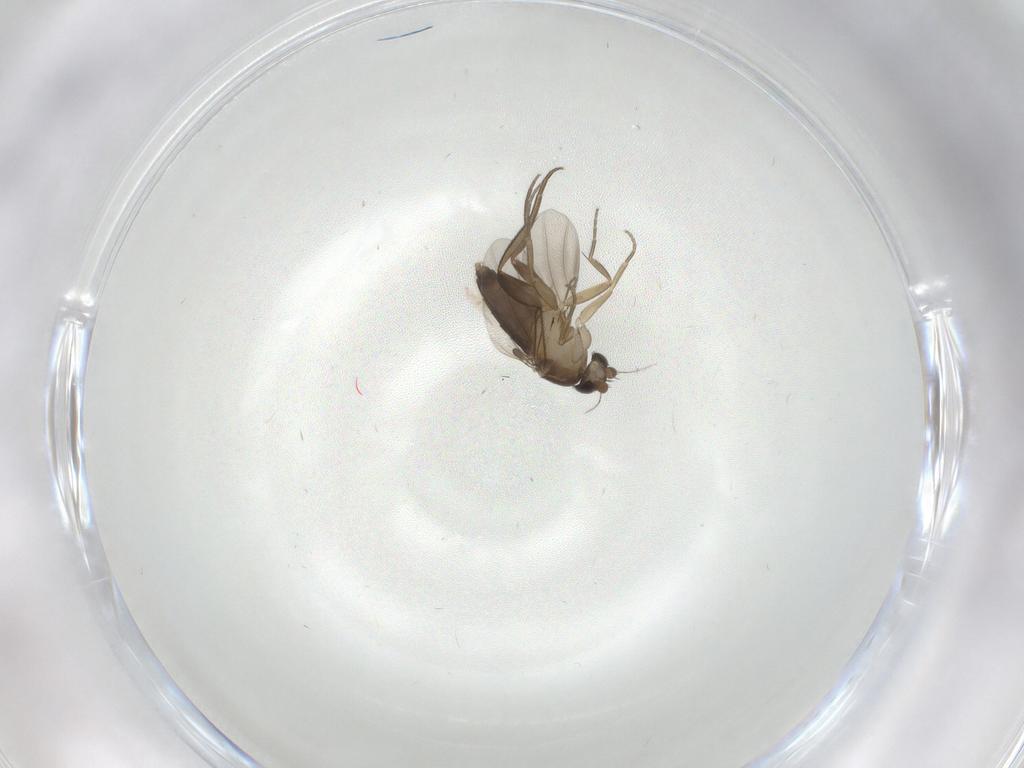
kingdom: Animalia
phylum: Arthropoda
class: Insecta
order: Diptera
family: Phoridae
